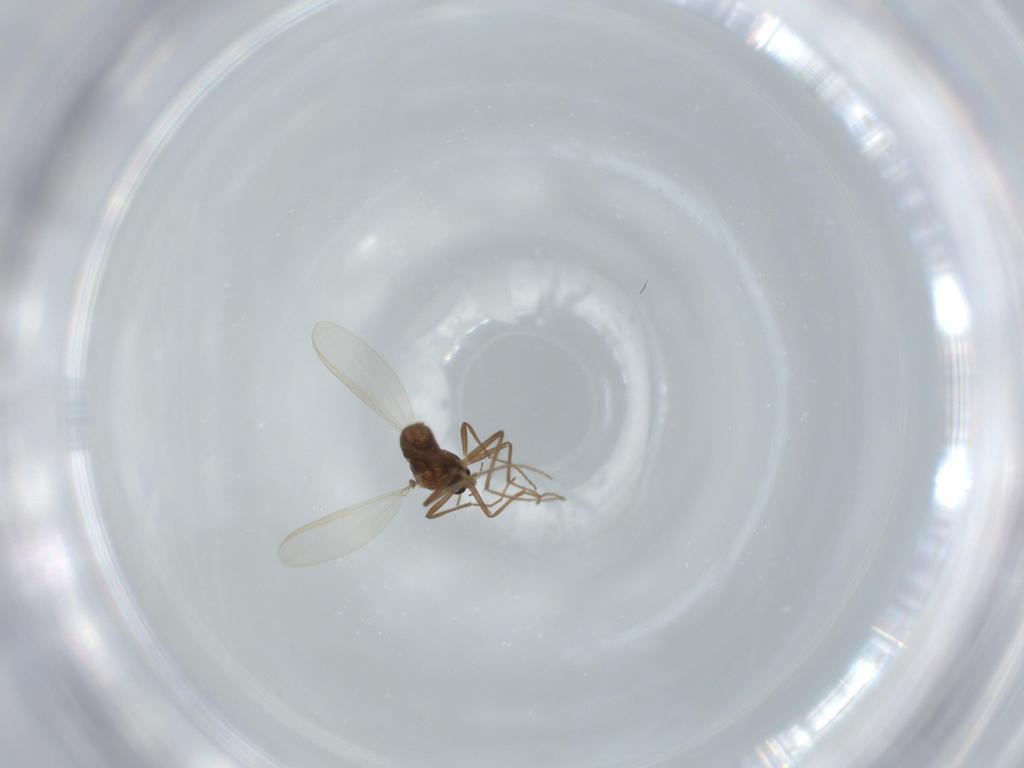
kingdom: Animalia
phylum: Arthropoda
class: Insecta
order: Diptera
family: Chironomidae
